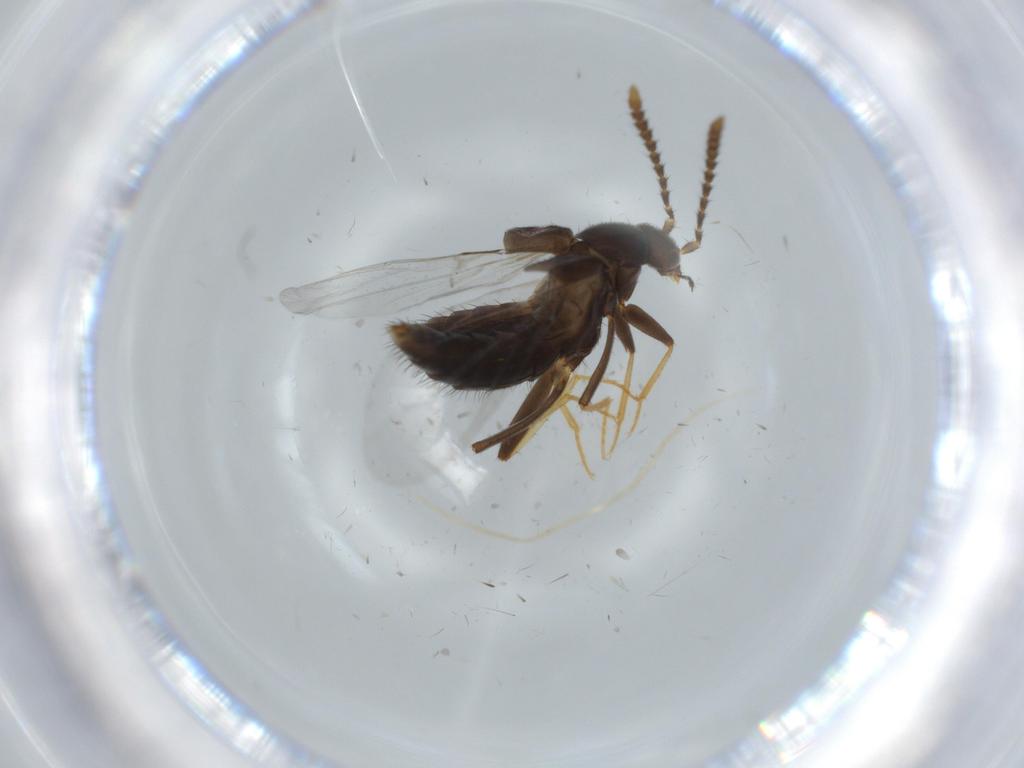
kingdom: Animalia
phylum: Arthropoda
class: Insecta
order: Coleoptera
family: Staphylinidae
